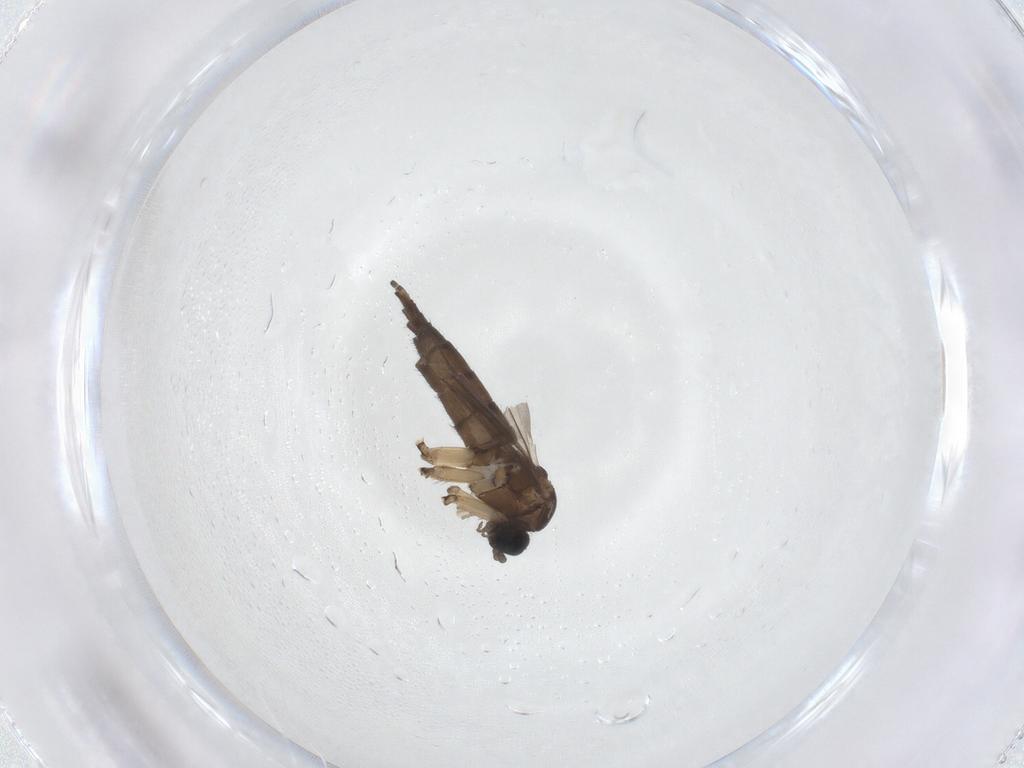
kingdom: Animalia
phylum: Arthropoda
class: Insecta
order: Diptera
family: Sciaridae
